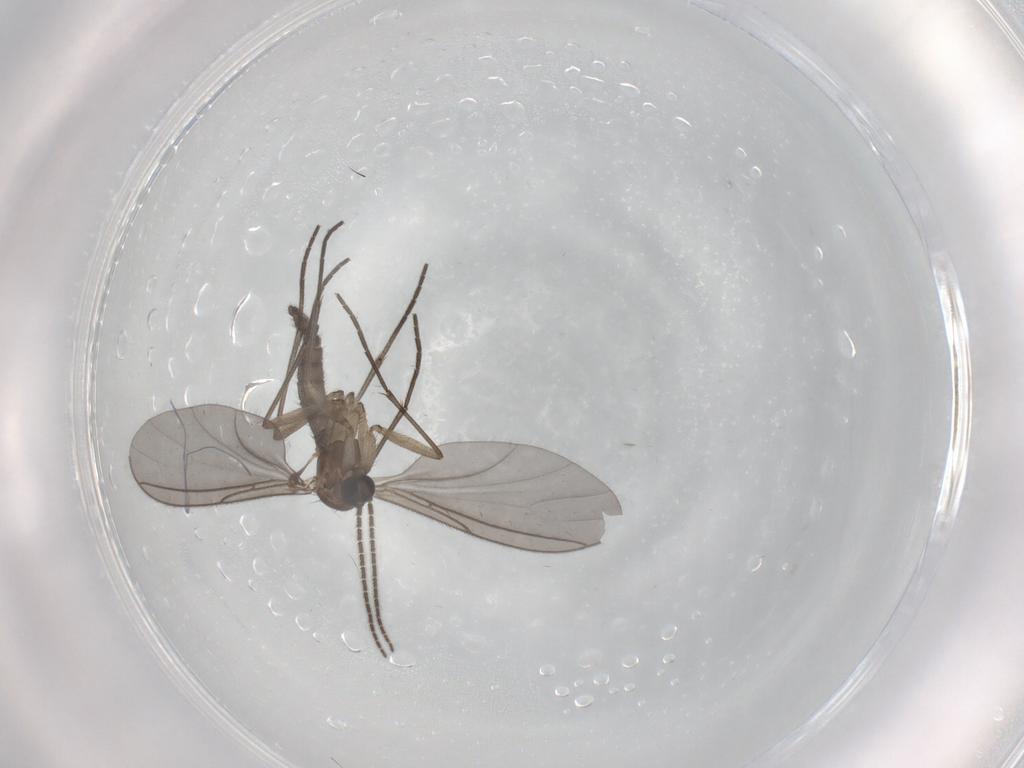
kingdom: Animalia
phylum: Arthropoda
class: Insecta
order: Diptera
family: Sciaridae
